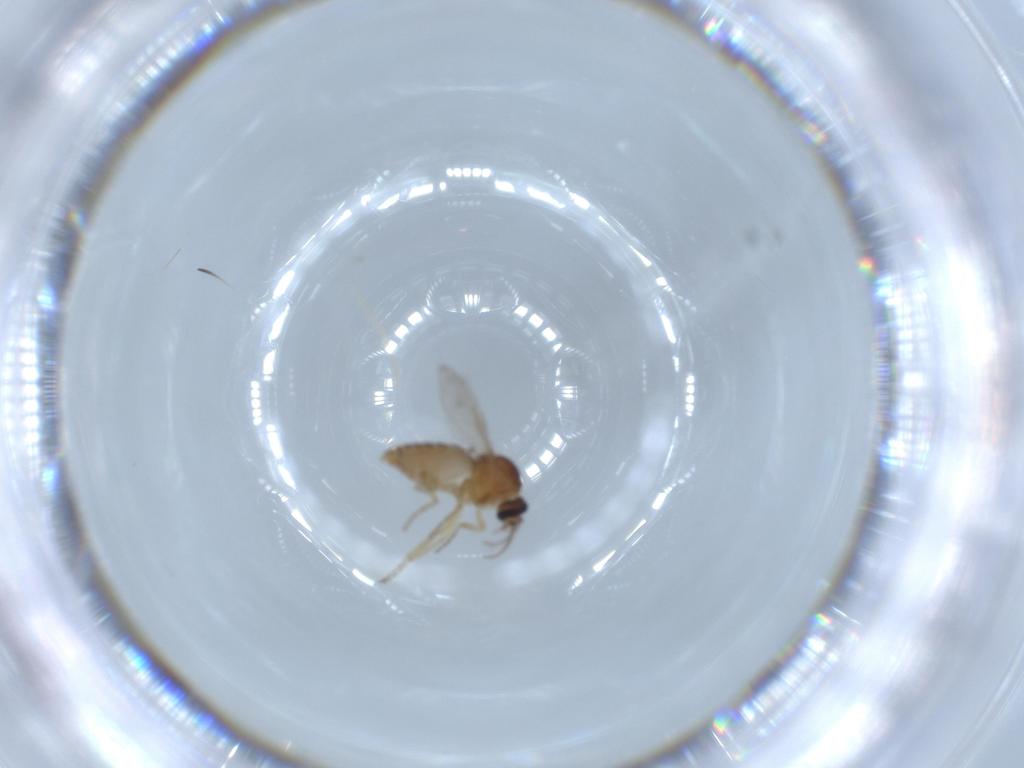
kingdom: Animalia
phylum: Arthropoda
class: Insecta
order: Diptera
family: Ceratopogonidae
